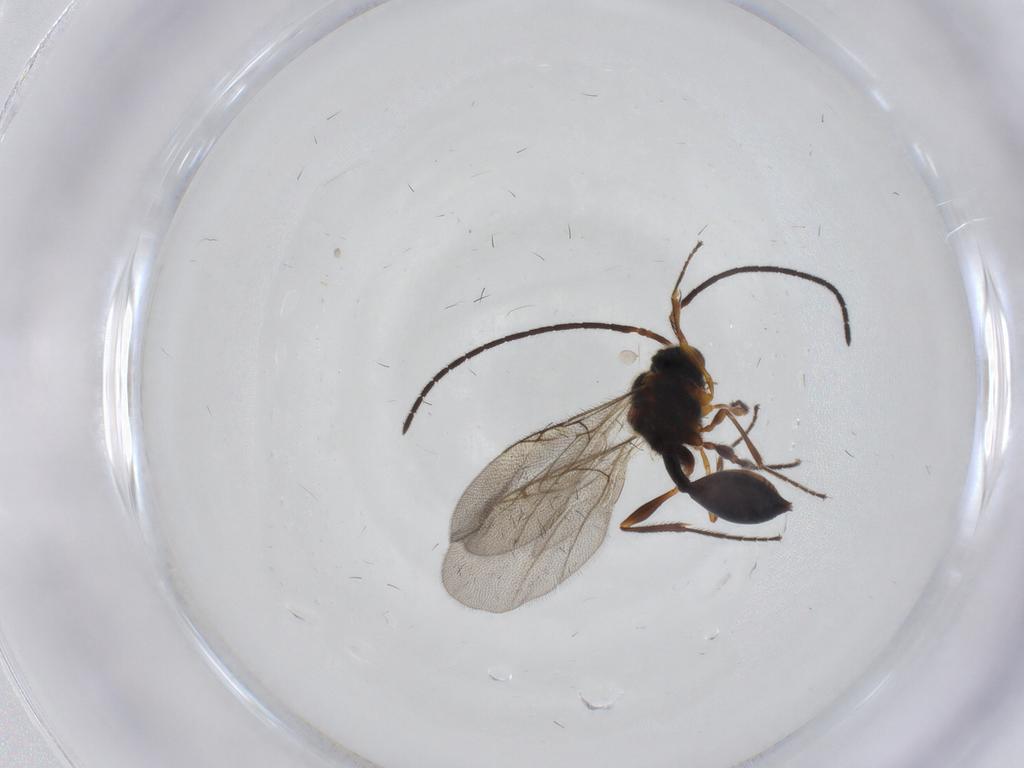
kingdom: Animalia
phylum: Arthropoda
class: Insecta
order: Hymenoptera
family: Diapriidae
